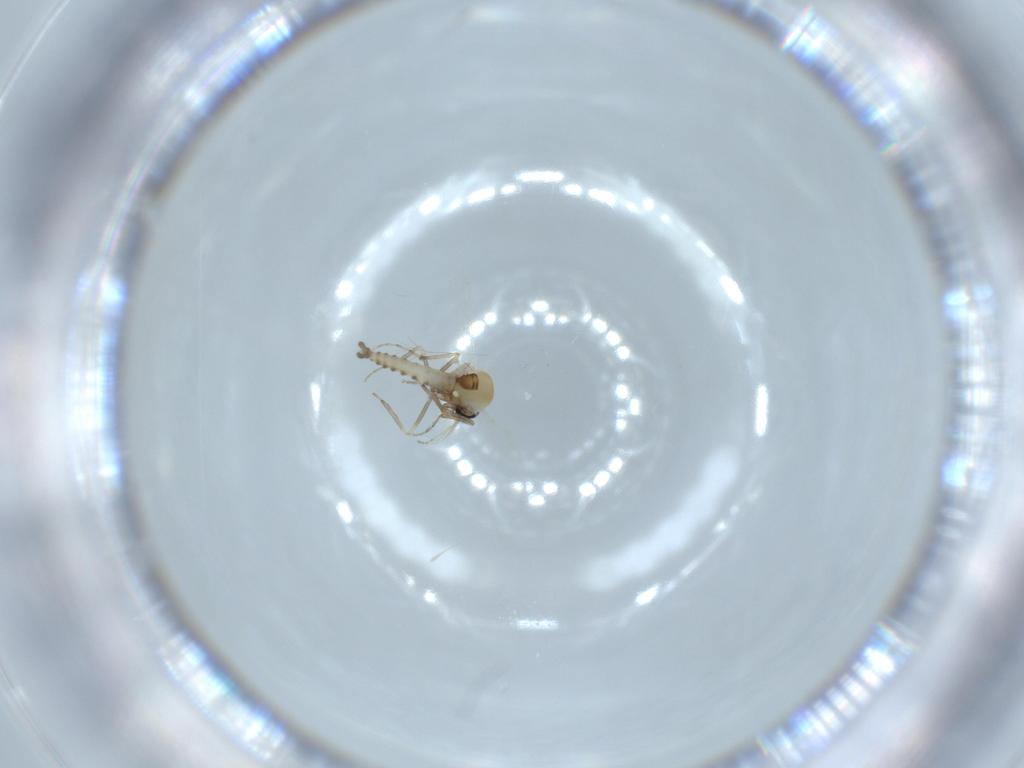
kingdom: Animalia
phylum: Arthropoda
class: Insecta
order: Diptera
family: Ceratopogonidae
